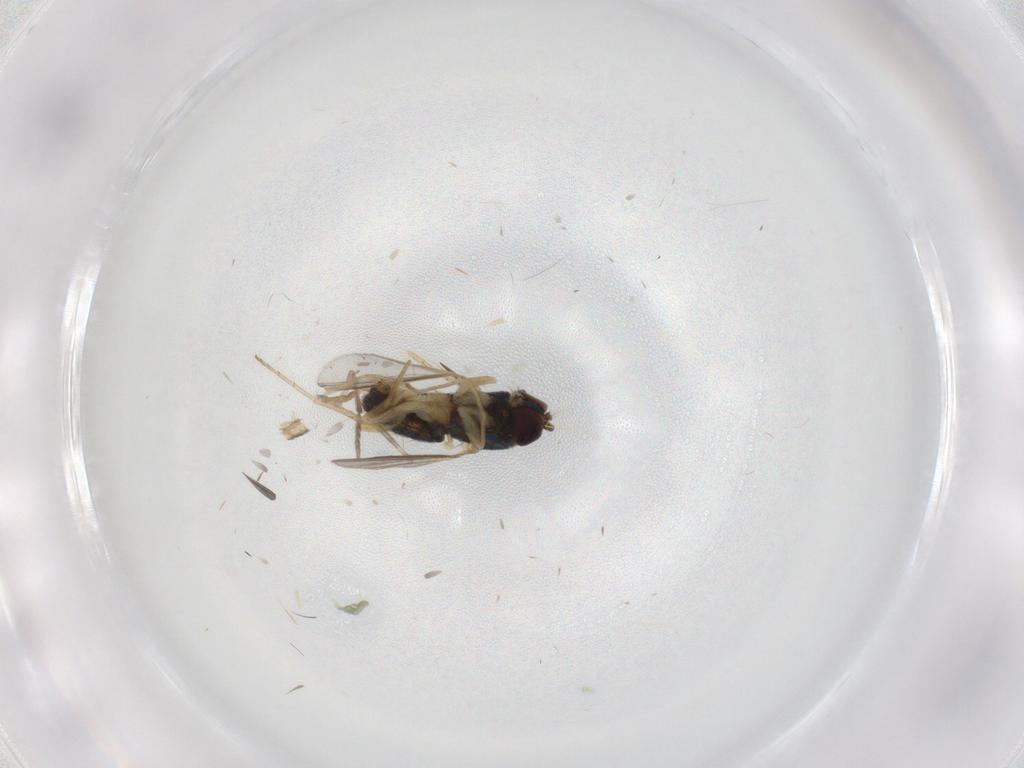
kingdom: Animalia
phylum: Arthropoda
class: Insecta
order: Diptera
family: Dolichopodidae
